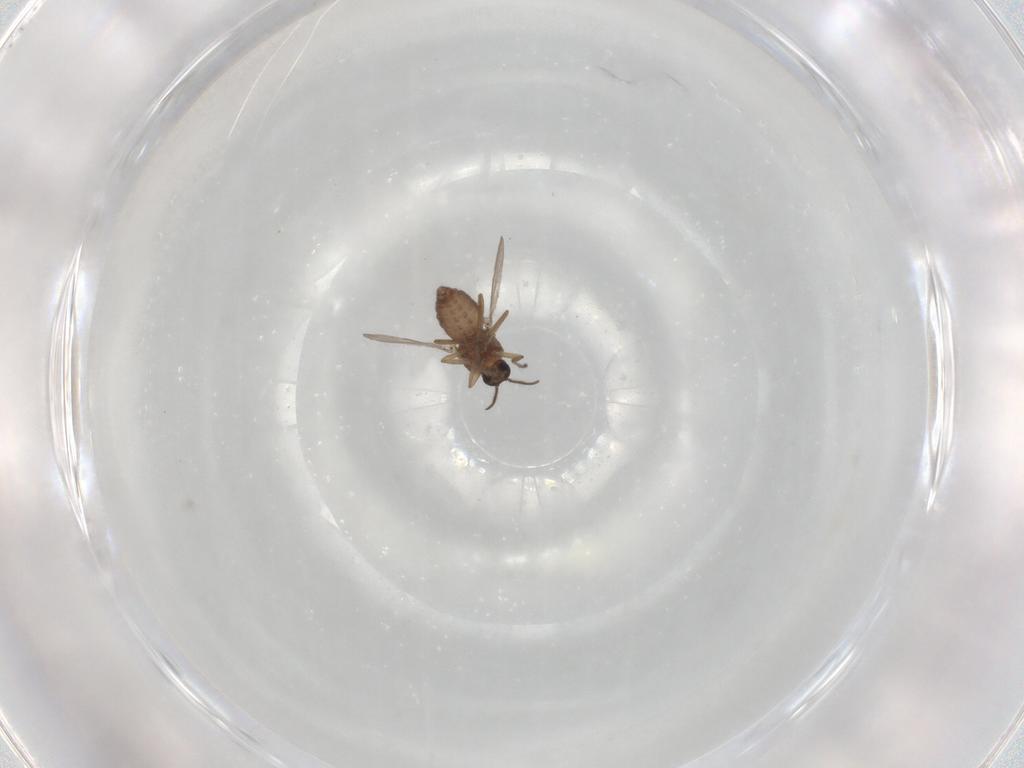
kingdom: Animalia
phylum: Arthropoda
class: Insecta
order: Diptera
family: Ceratopogonidae
